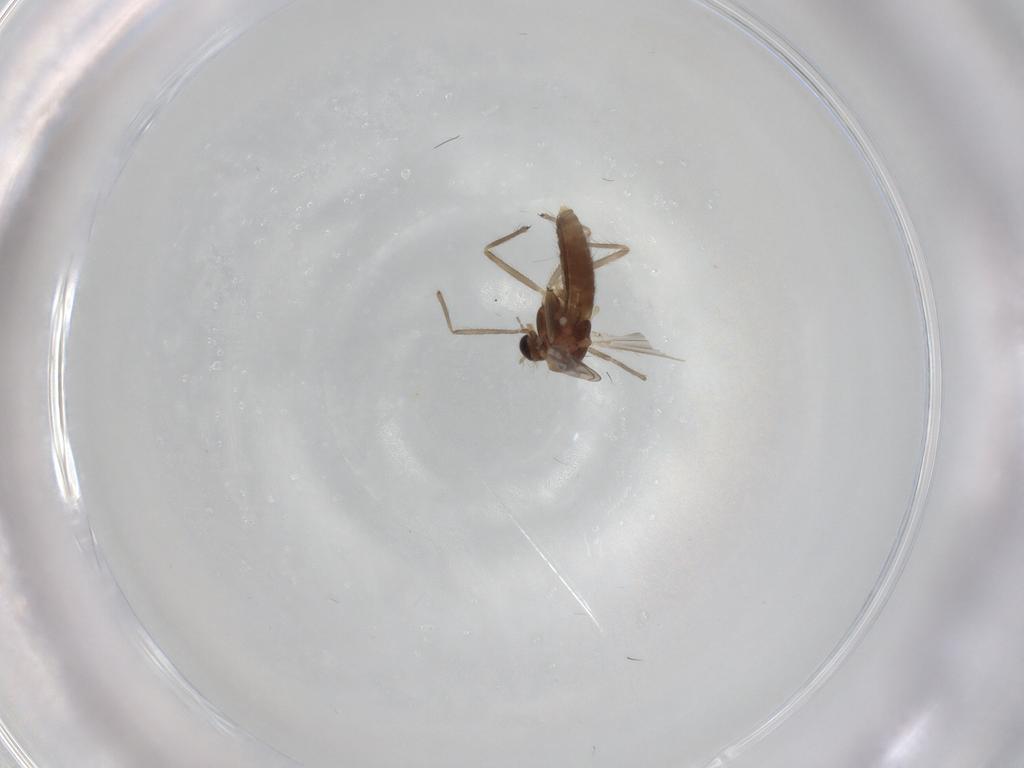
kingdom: Animalia
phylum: Arthropoda
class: Insecta
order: Diptera
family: Chironomidae
